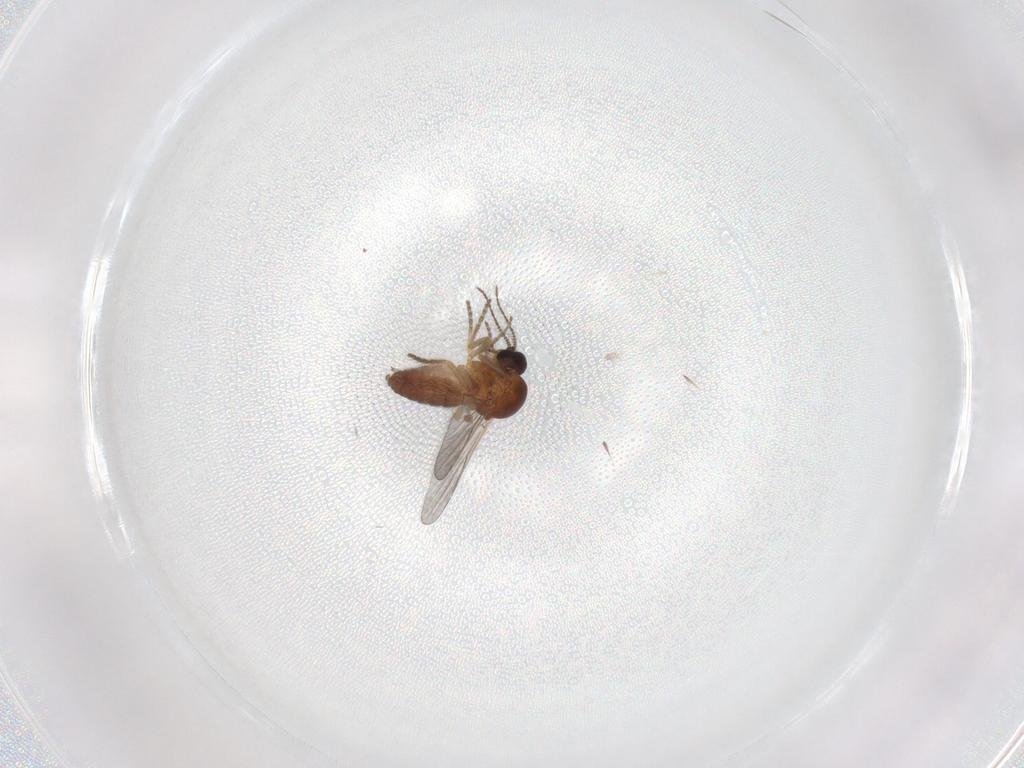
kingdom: Animalia
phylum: Arthropoda
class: Insecta
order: Diptera
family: Ceratopogonidae
